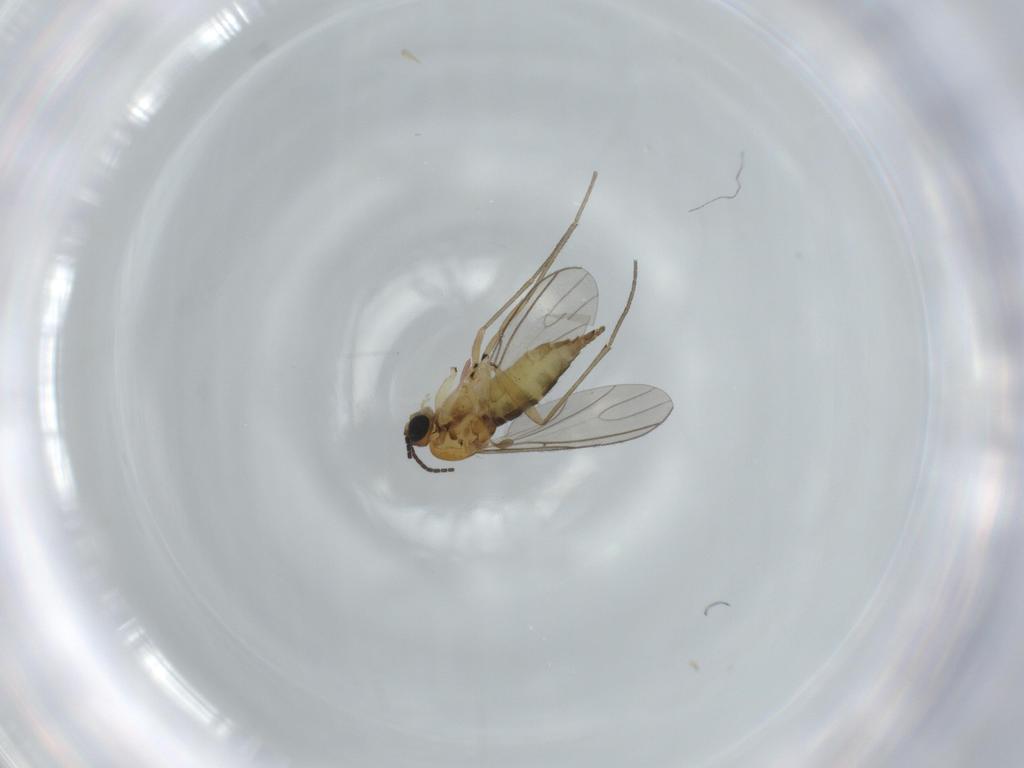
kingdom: Animalia
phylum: Arthropoda
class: Insecta
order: Diptera
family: Sciaridae
